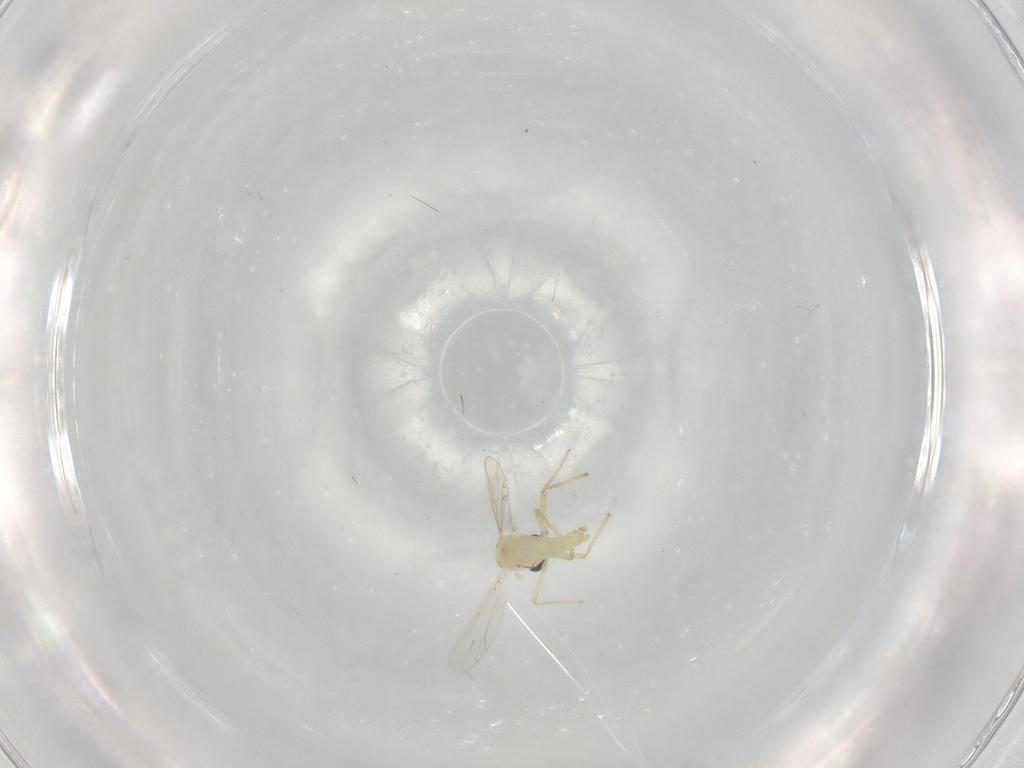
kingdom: Animalia
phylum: Arthropoda
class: Insecta
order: Diptera
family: Chironomidae
